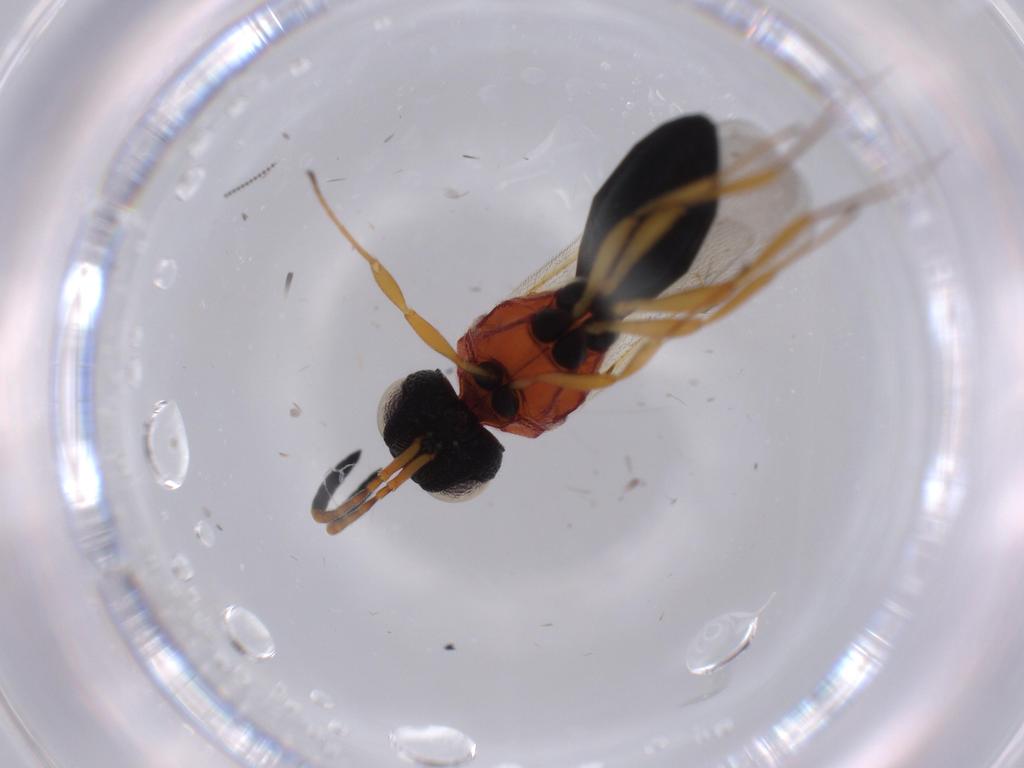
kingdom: Animalia
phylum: Arthropoda
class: Insecta
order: Hymenoptera
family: Scelionidae
